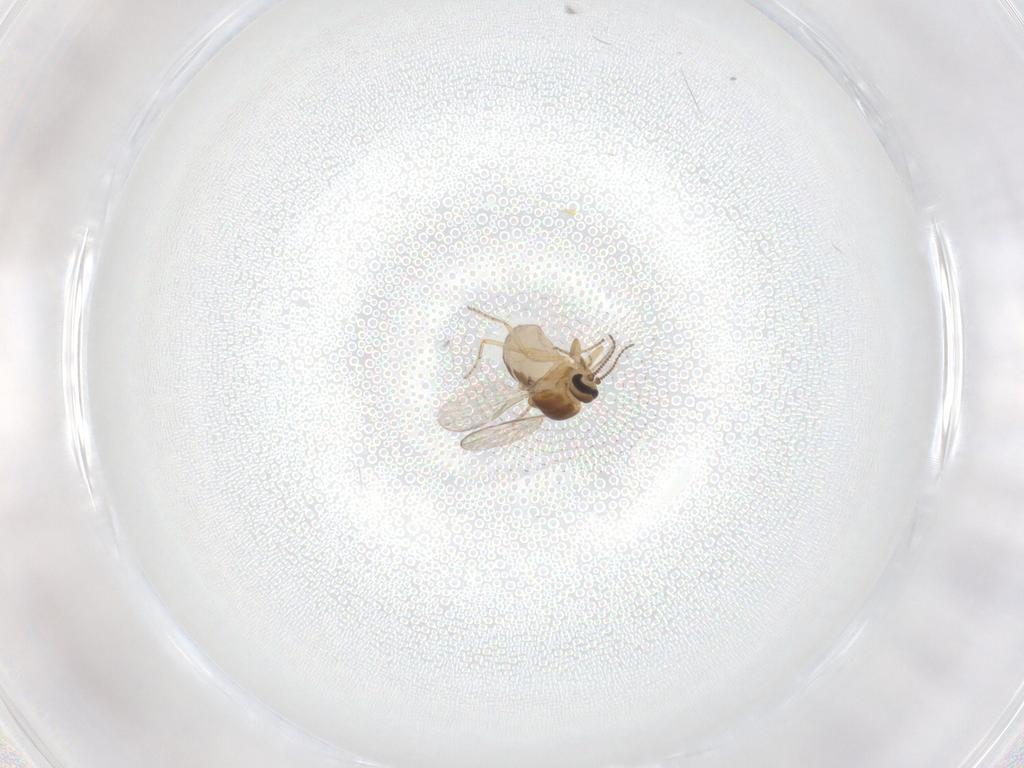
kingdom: Animalia
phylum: Arthropoda
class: Insecta
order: Diptera
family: Ceratopogonidae
